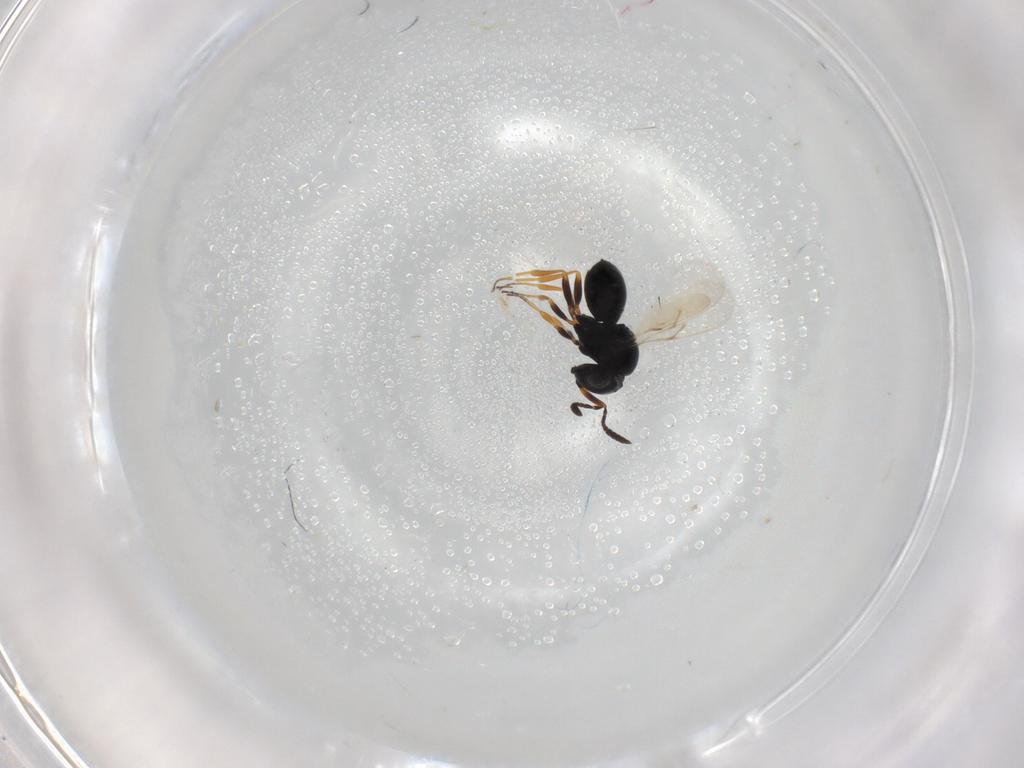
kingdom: Animalia
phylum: Arthropoda
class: Insecta
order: Hymenoptera
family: Scelionidae
